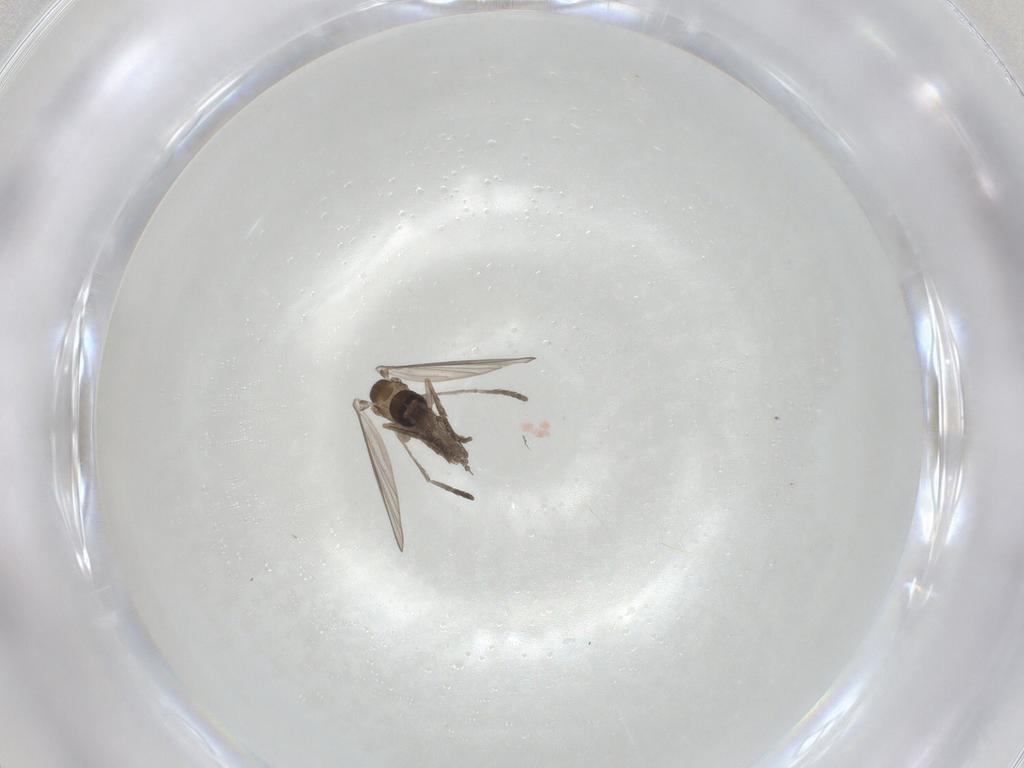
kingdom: Animalia
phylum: Arthropoda
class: Insecta
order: Diptera
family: Psychodidae
